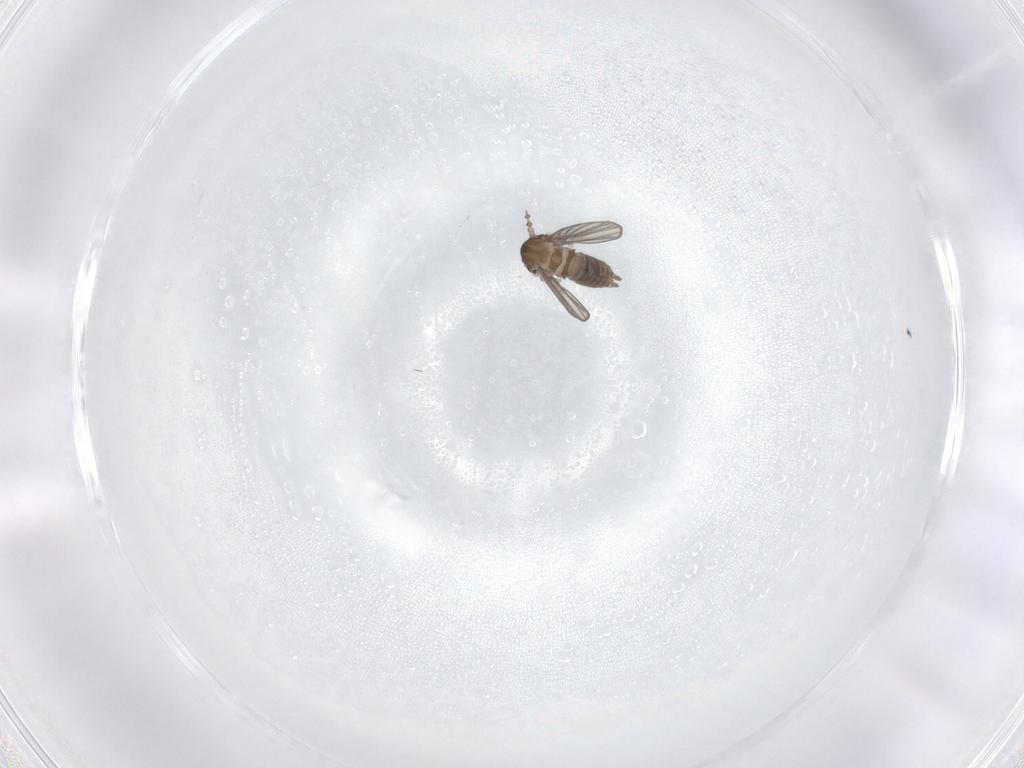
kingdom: Animalia
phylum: Arthropoda
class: Insecta
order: Diptera
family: Psychodidae
